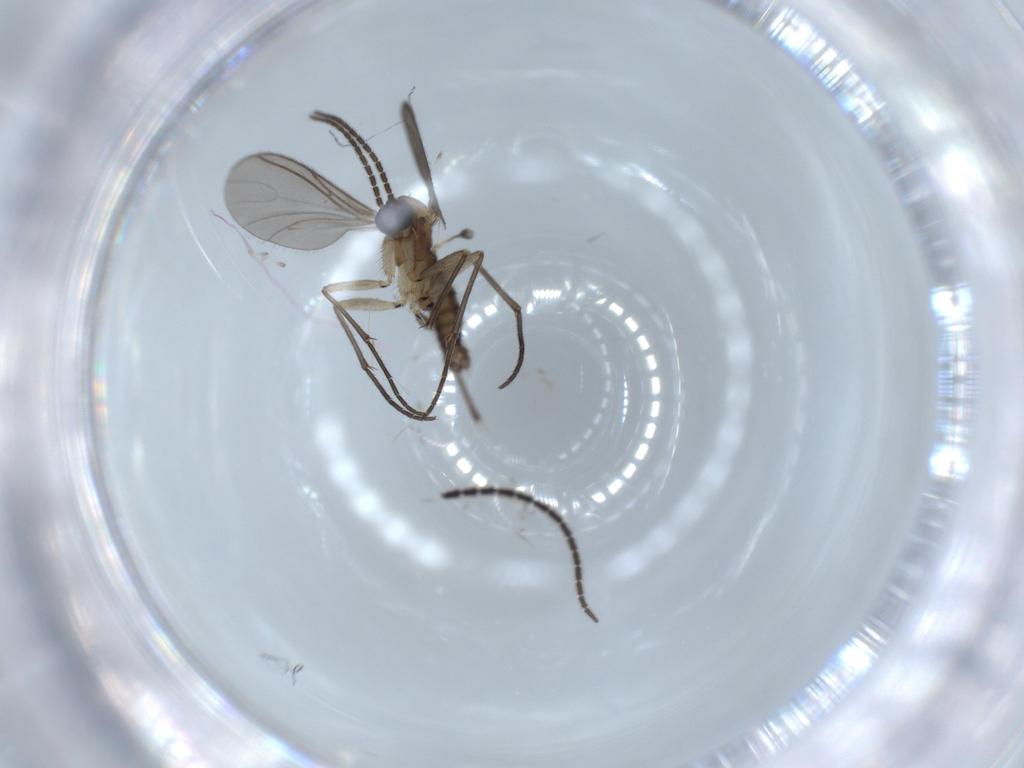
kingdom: Animalia
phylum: Arthropoda
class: Insecta
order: Diptera
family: Sciaridae
